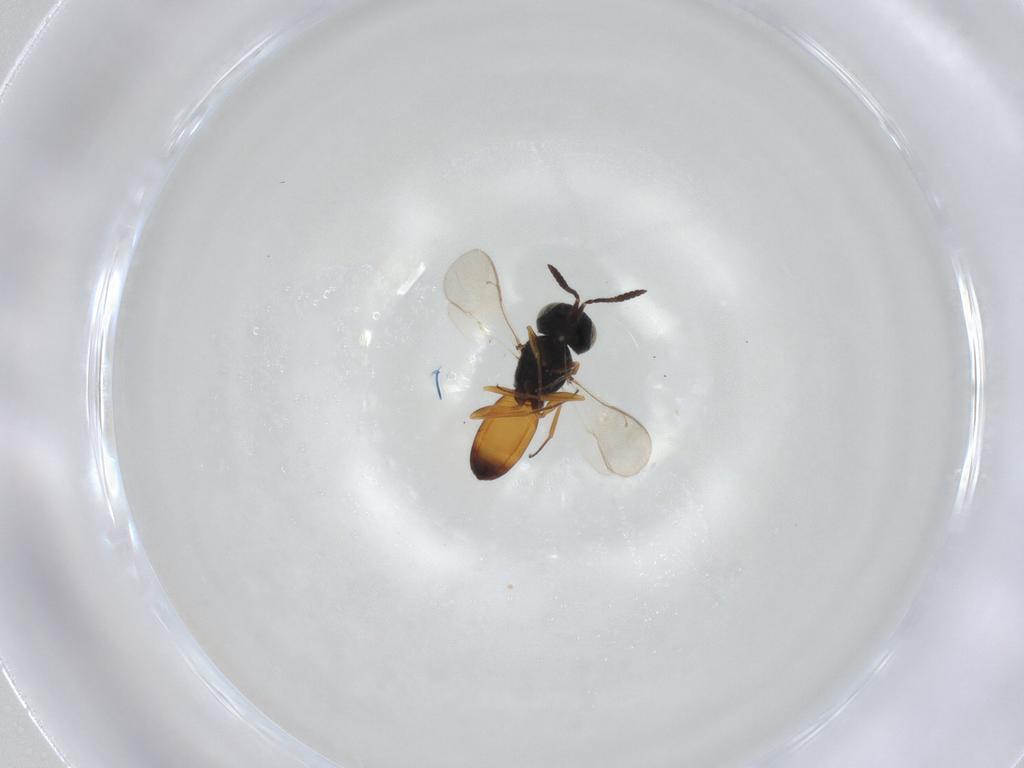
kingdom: Animalia
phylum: Arthropoda
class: Insecta
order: Hymenoptera
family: Scelionidae
